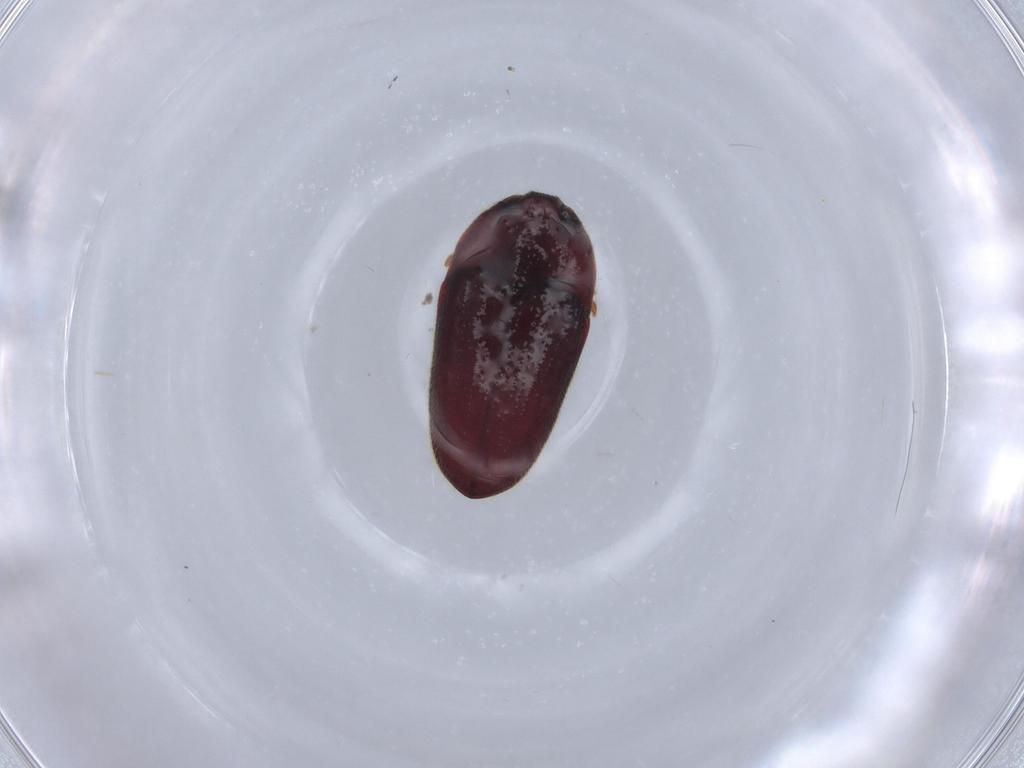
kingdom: Animalia
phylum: Arthropoda
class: Insecta
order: Coleoptera
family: Throscidae
